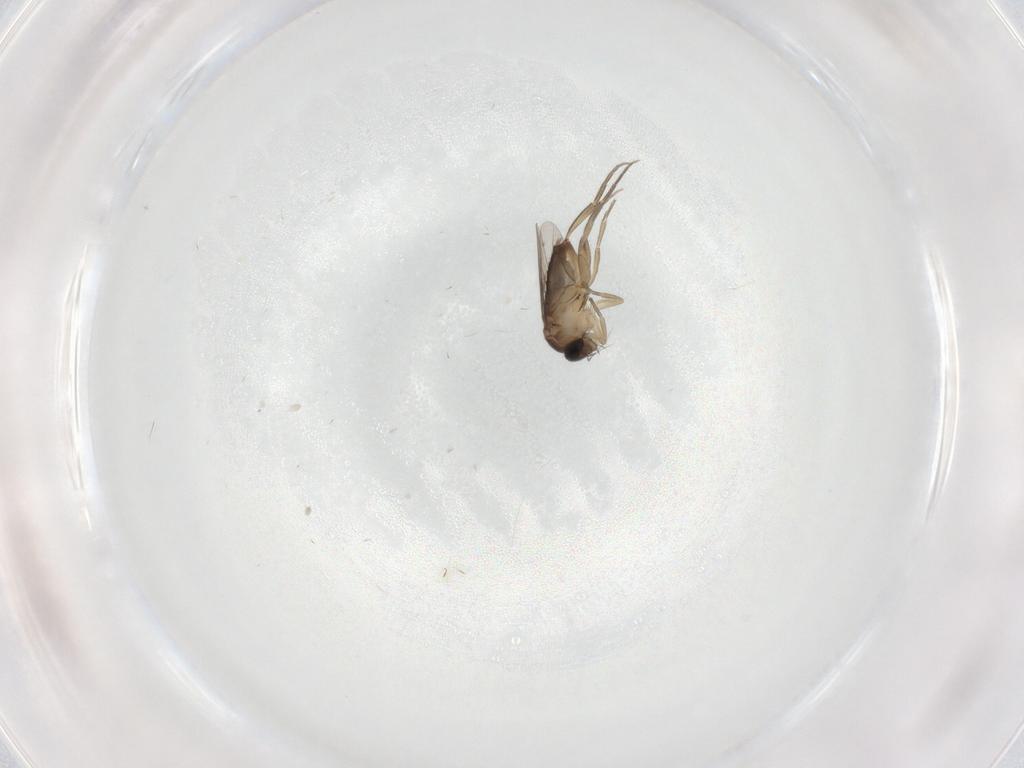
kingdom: Animalia
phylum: Arthropoda
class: Insecta
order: Diptera
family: Cecidomyiidae
